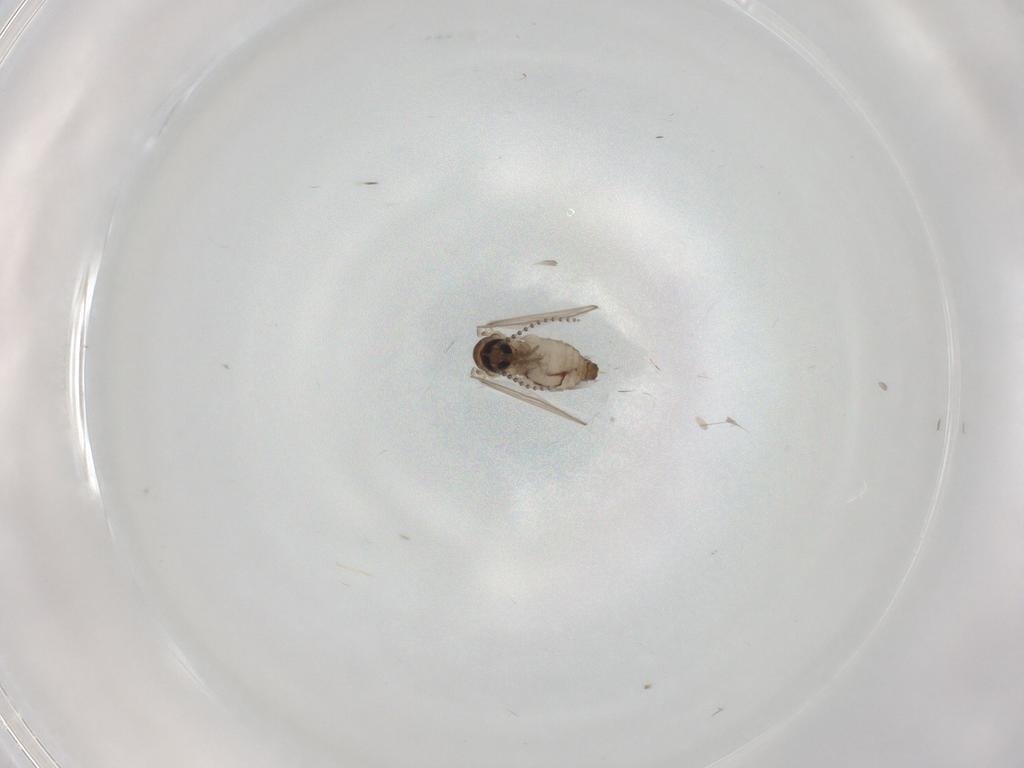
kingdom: Animalia
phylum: Arthropoda
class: Insecta
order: Diptera
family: Psychodidae
